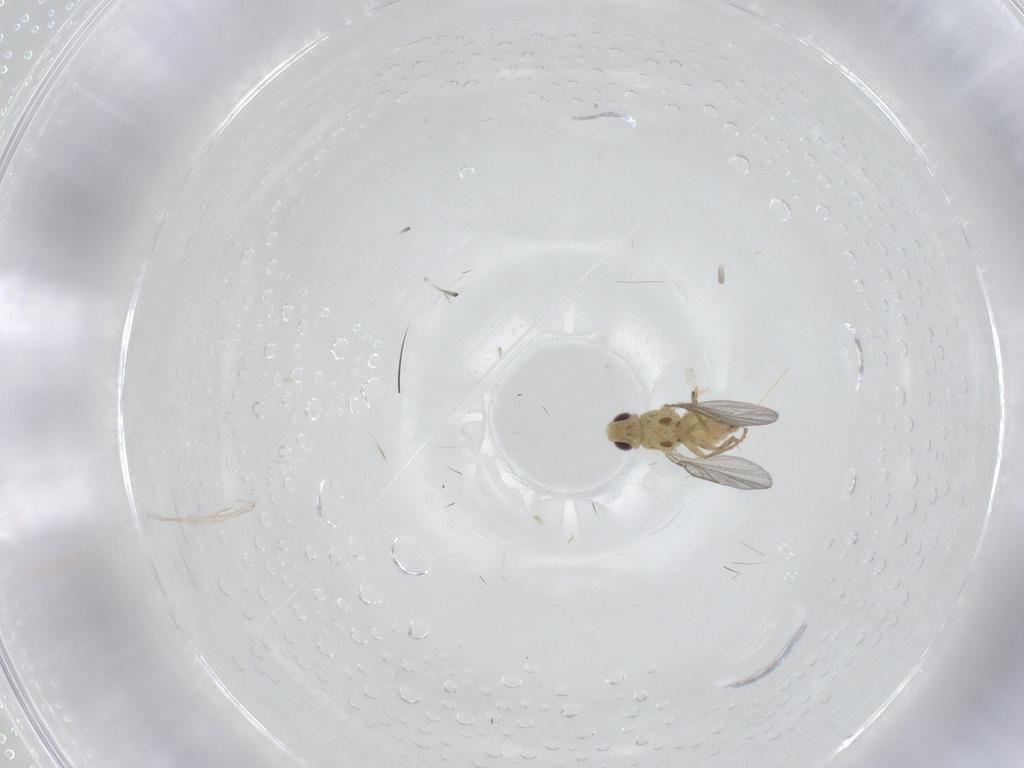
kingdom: Animalia
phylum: Arthropoda
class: Insecta
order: Diptera
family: Agromyzidae
